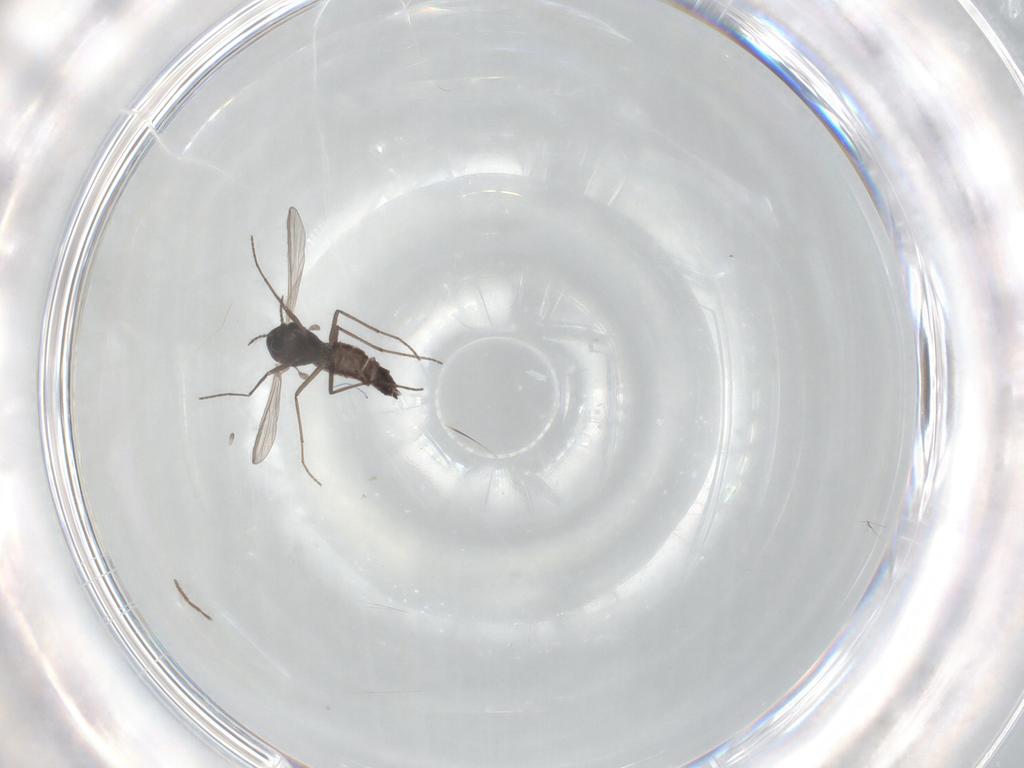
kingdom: Animalia
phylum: Arthropoda
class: Insecta
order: Diptera
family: Chironomidae
